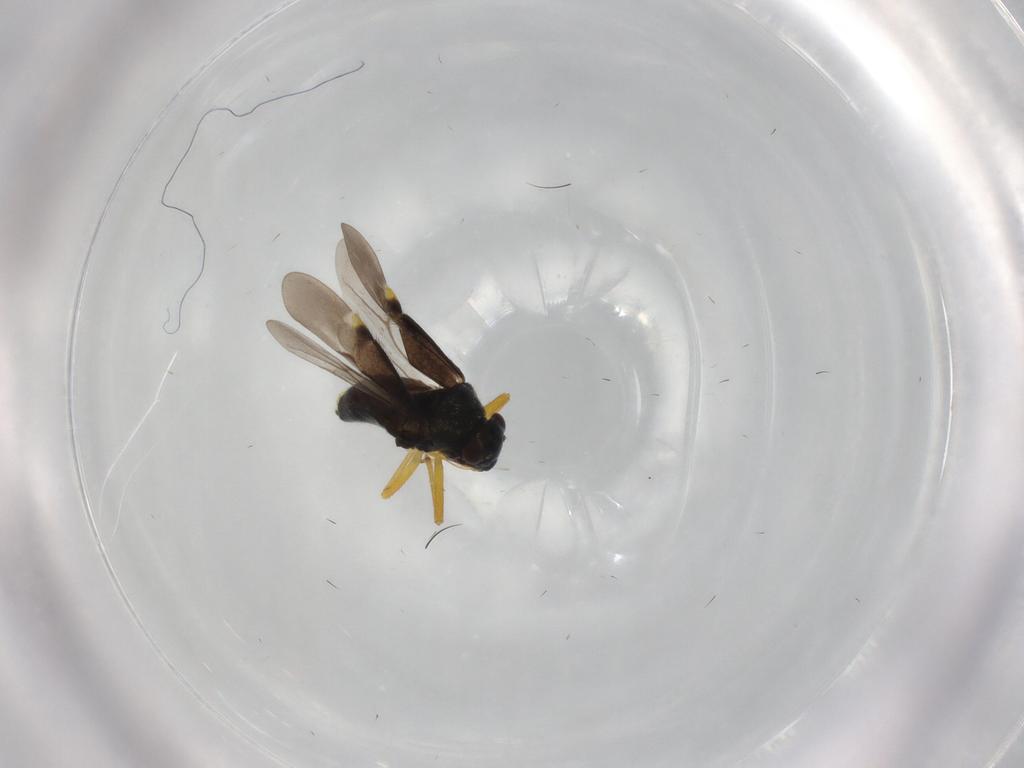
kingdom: Animalia
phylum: Arthropoda
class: Insecta
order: Hemiptera
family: Miridae
